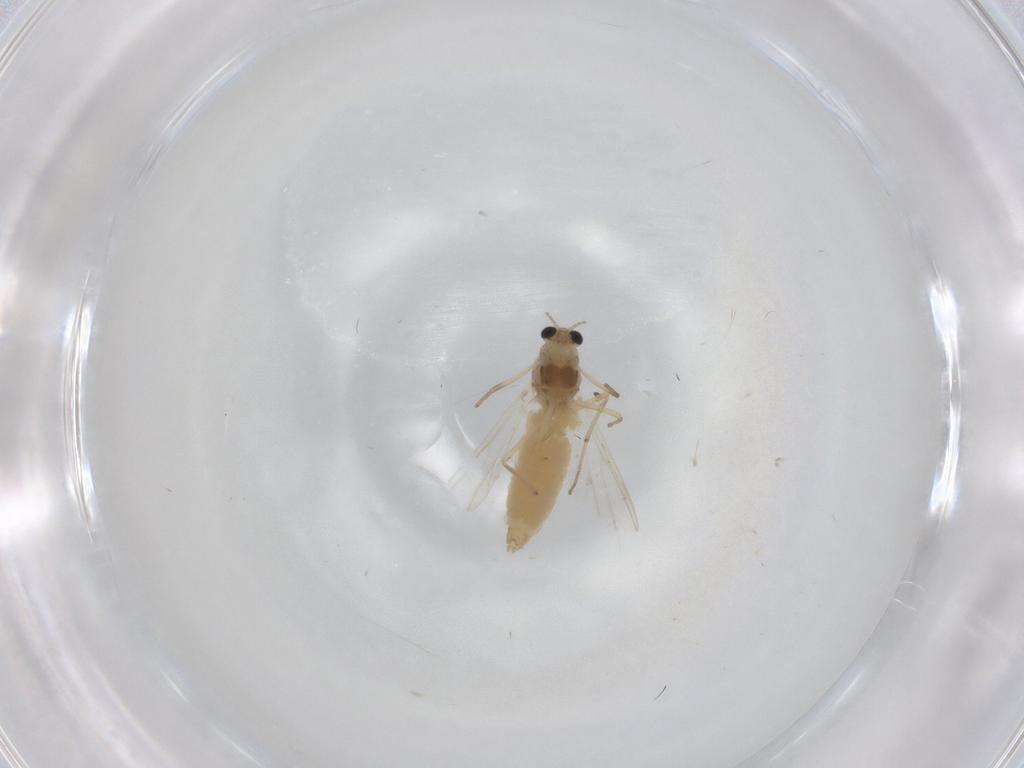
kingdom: Animalia
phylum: Arthropoda
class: Insecta
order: Diptera
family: Chironomidae
